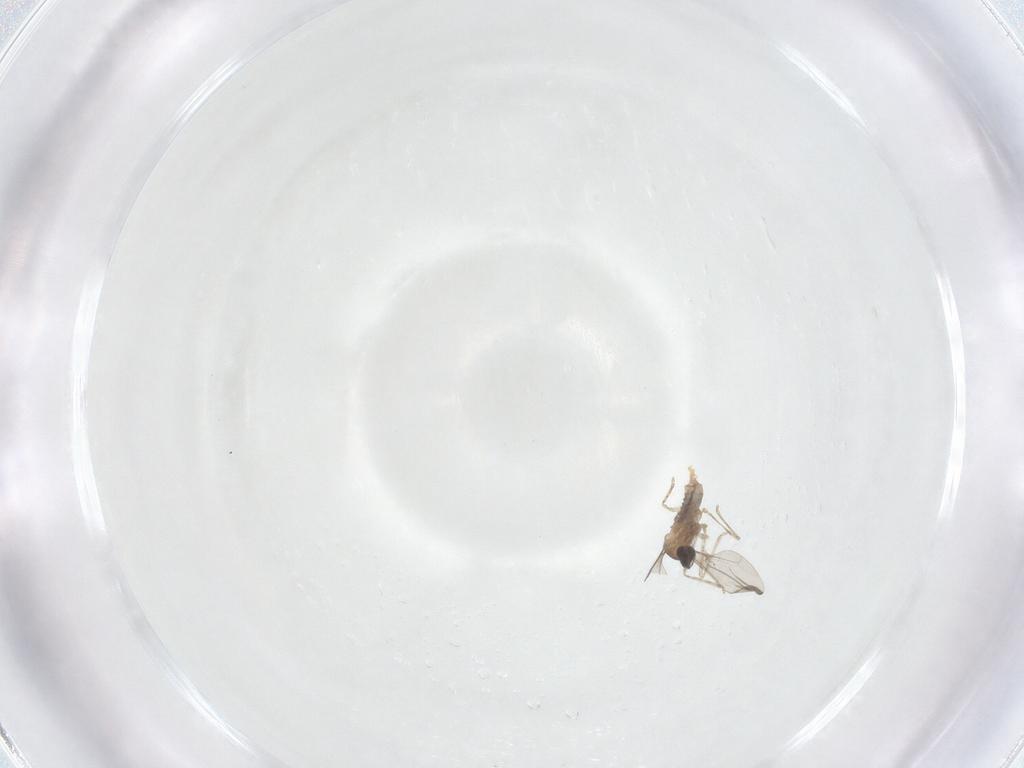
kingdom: Animalia
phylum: Arthropoda
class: Insecta
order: Diptera
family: Cecidomyiidae
